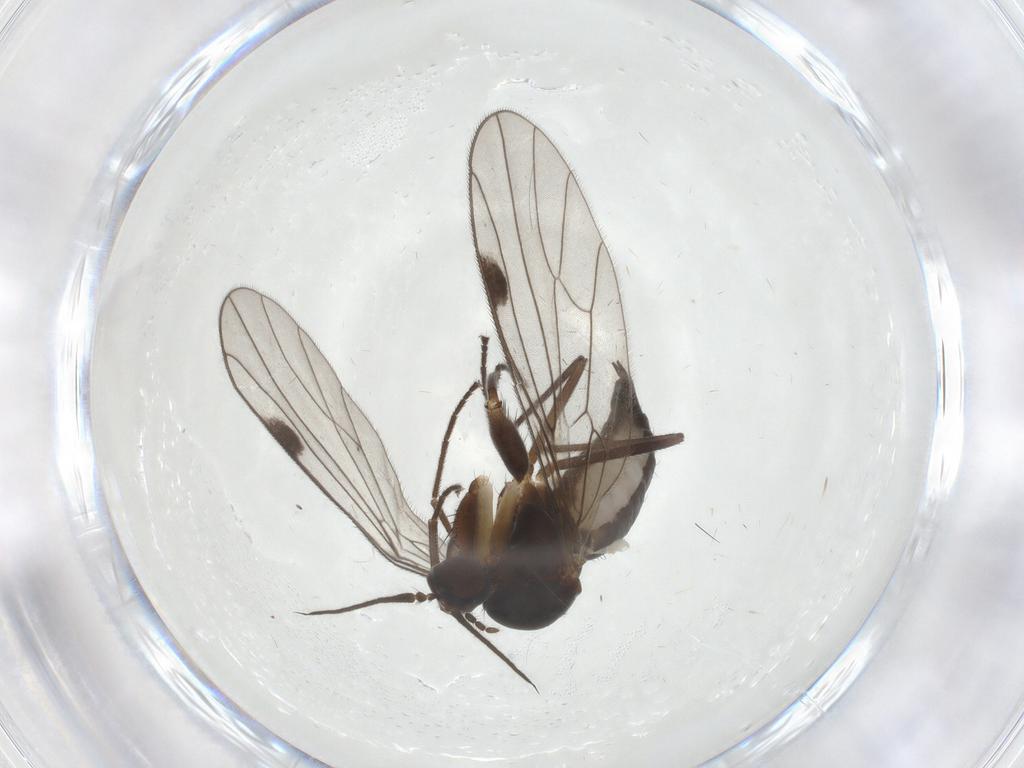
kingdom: Animalia
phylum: Arthropoda
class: Insecta
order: Diptera
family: Empididae
